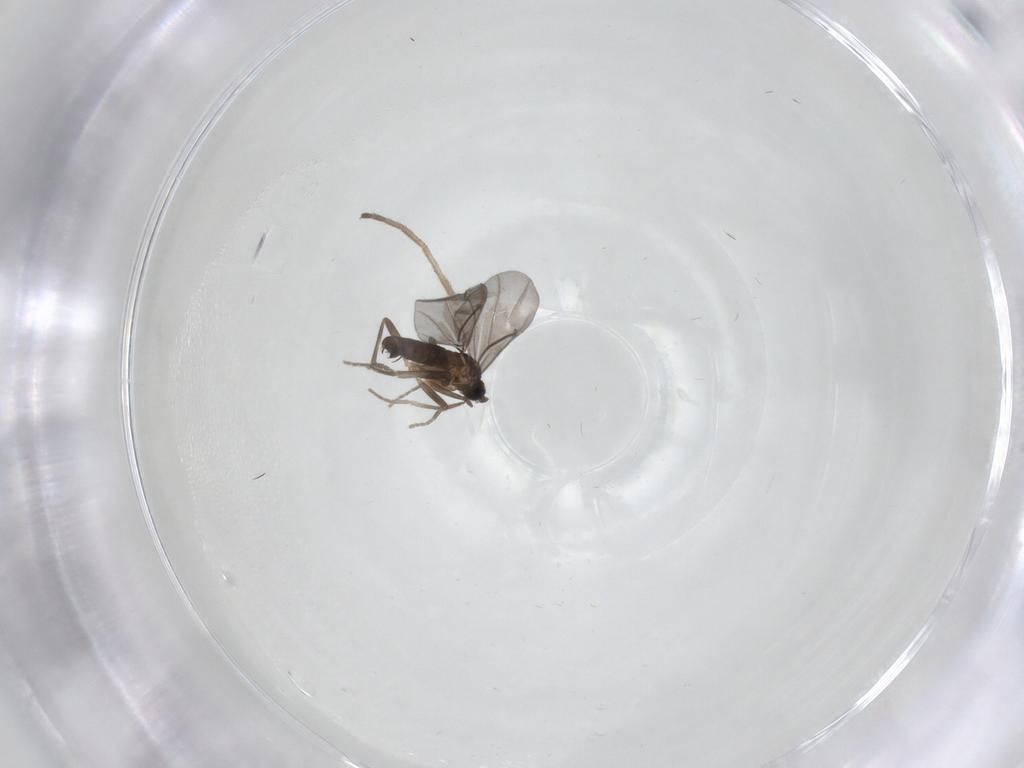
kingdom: Animalia
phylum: Arthropoda
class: Insecta
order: Diptera
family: Phoridae
